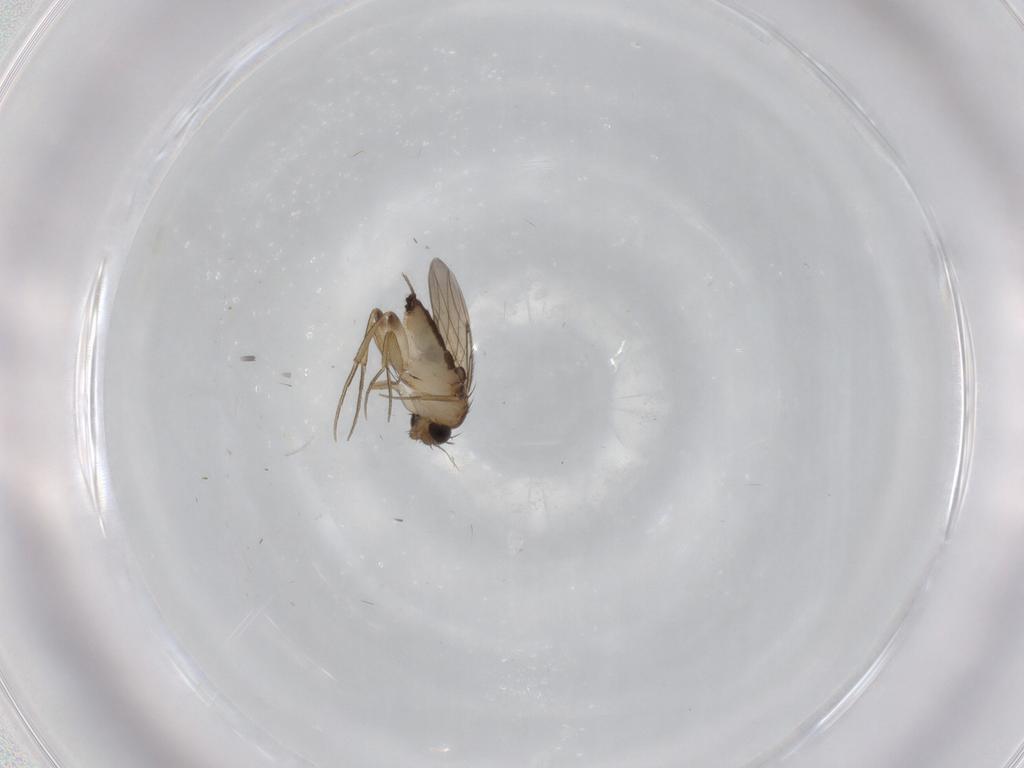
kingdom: Animalia
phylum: Arthropoda
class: Insecta
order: Diptera
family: Phoridae
